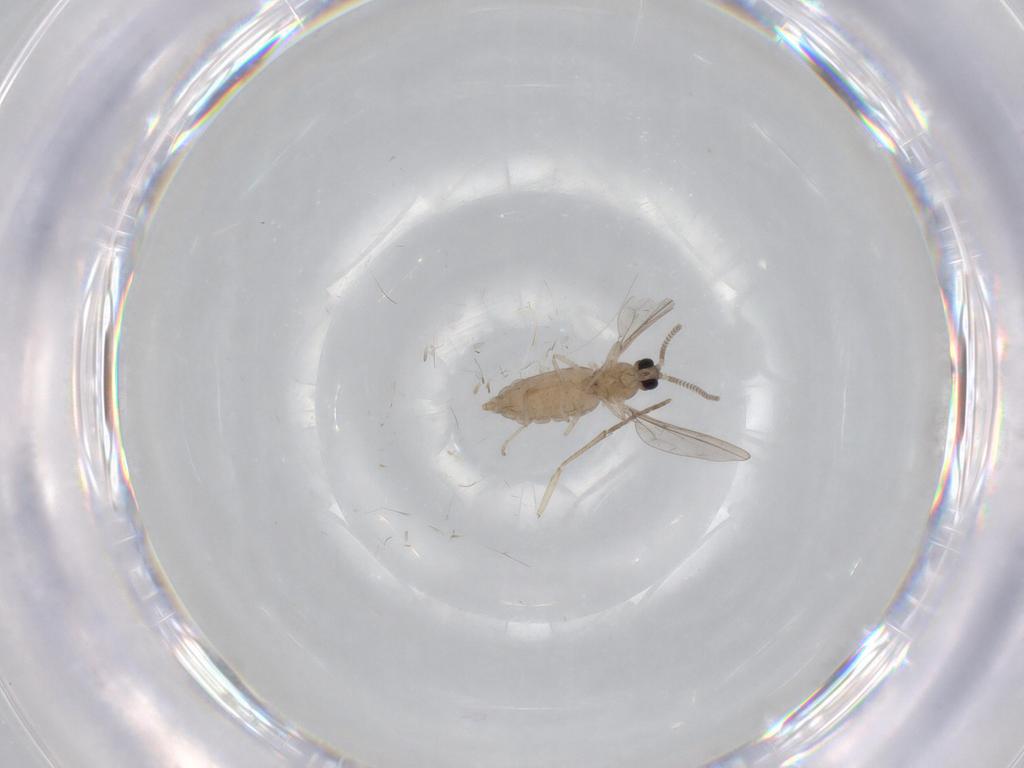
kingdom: Animalia
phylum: Arthropoda
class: Insecta
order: Diptera
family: Cecidomyiidae
